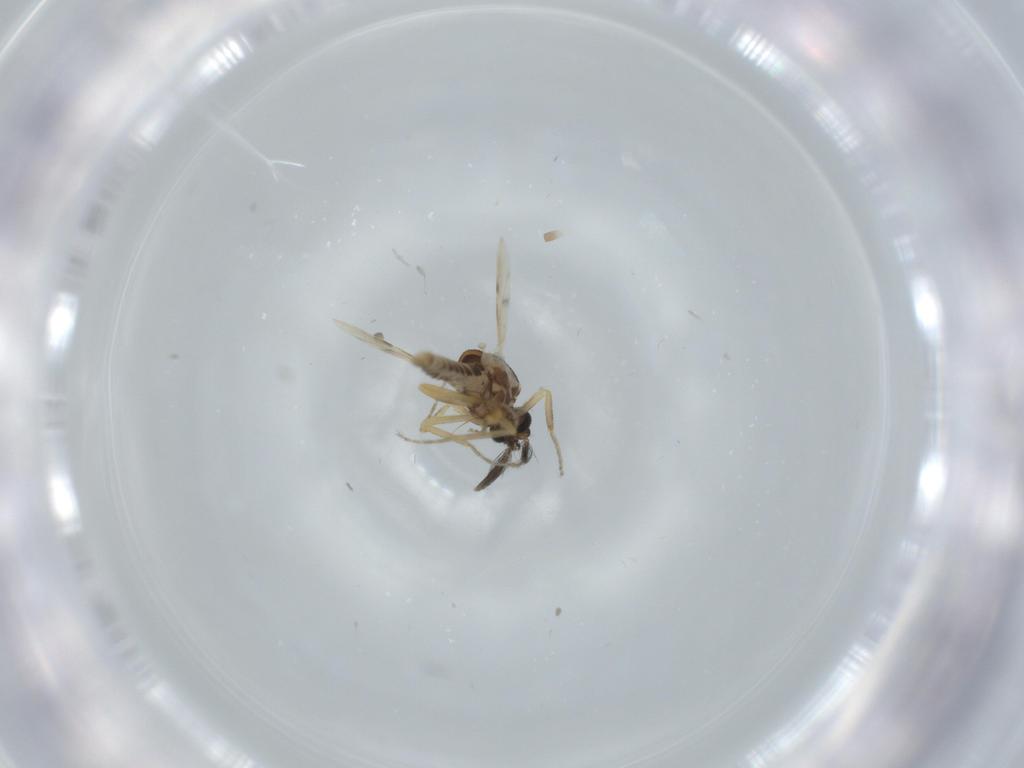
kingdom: Animalia
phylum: Arthropoda
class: Insecta
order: Diptera
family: Ceratopogonidae
